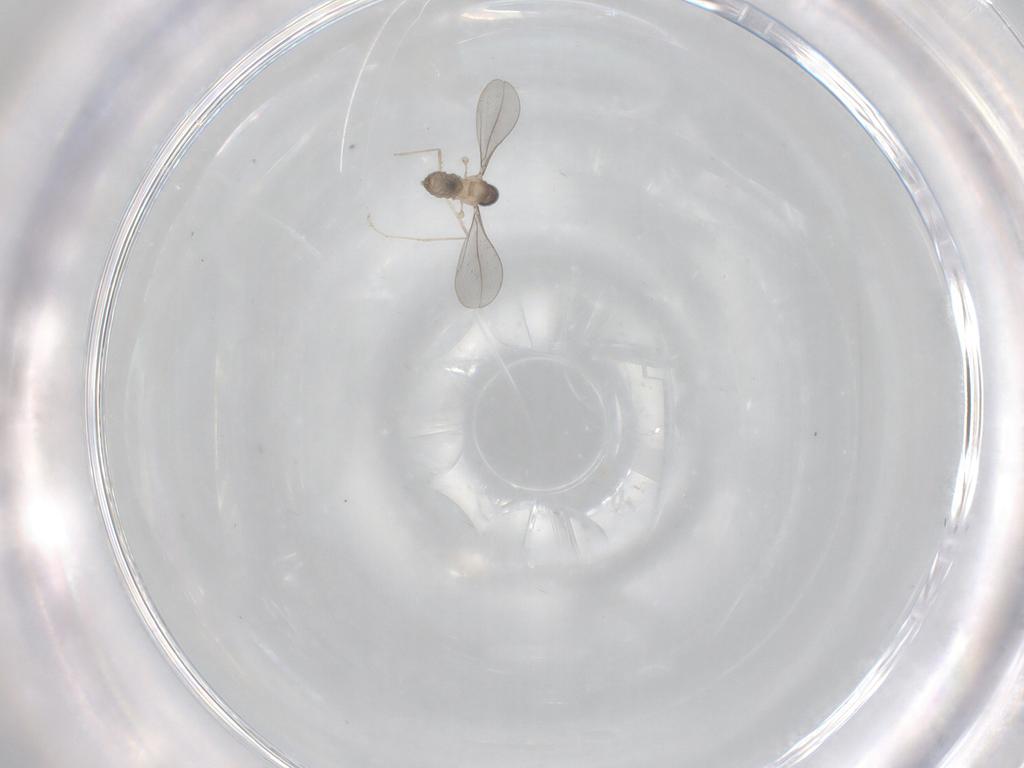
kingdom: Animalia
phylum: Arthropoda
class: Insecta
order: Diptera
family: Cecidomyiidae
